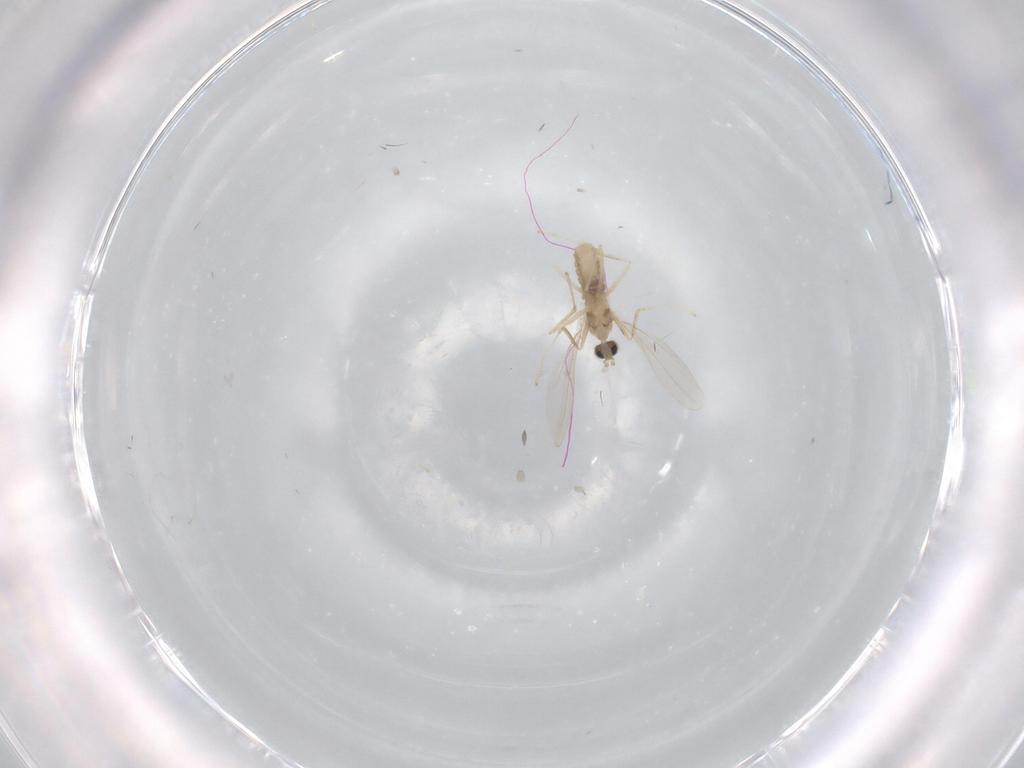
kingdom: Animalia
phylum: Arthropoda
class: Insecta
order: Diptera
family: Cecidomyiidae
